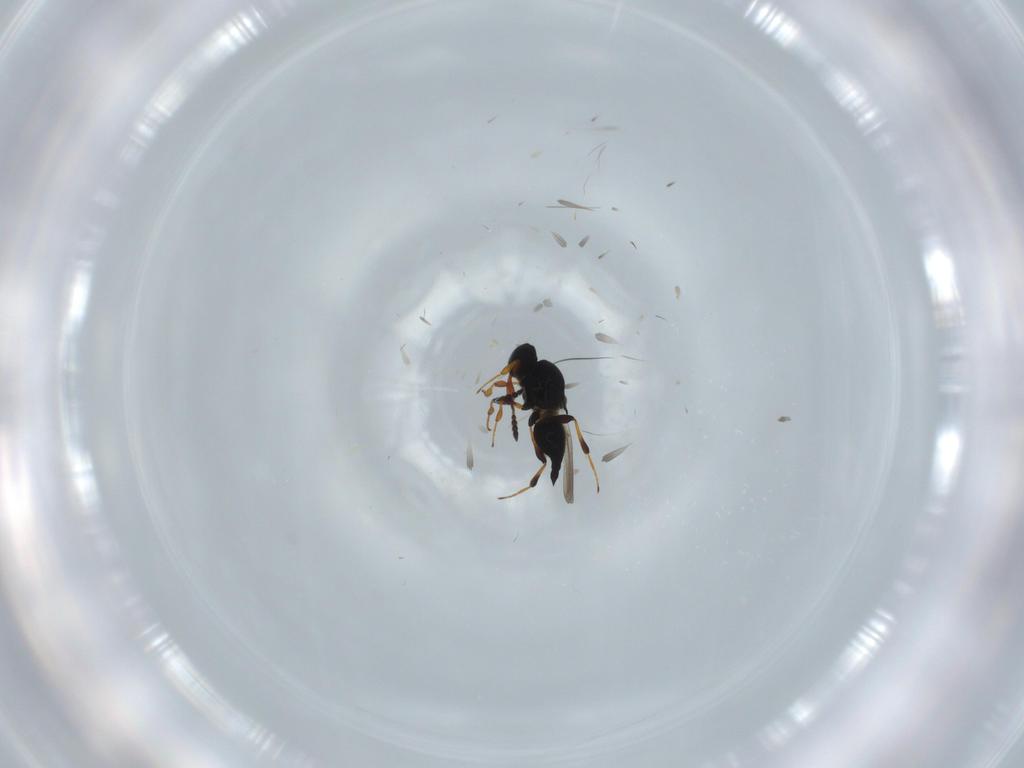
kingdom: Animalia
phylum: Arthropoda
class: Insecta
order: Hymenoptera
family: Platygastridae
